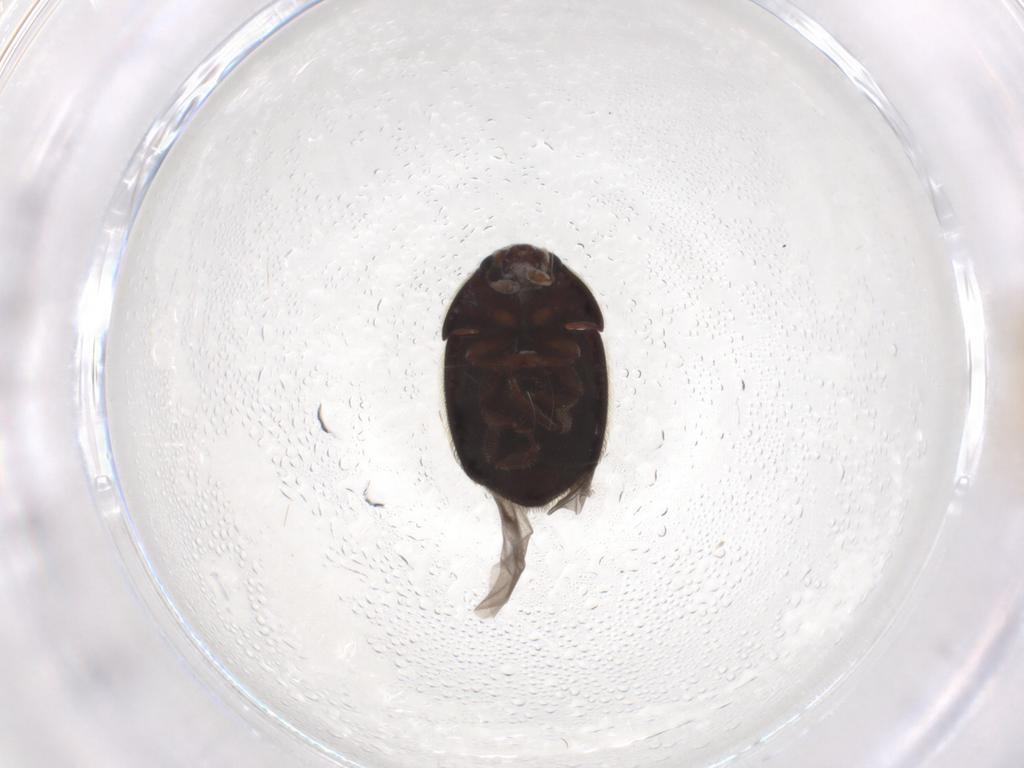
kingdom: Animalia
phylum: Arthropoda
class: Insecta
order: Coleoptera
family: Nitidulidae
